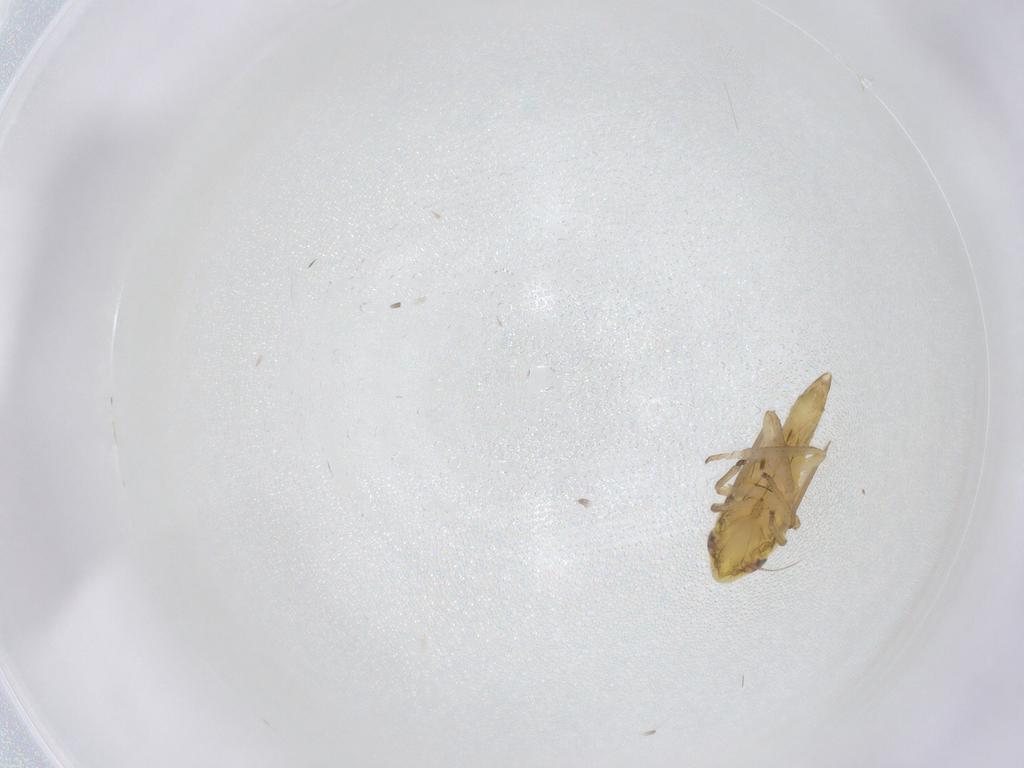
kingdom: Animalia
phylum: Arthropoda
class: Insecta
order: Hemiptera
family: Cicadellidae
